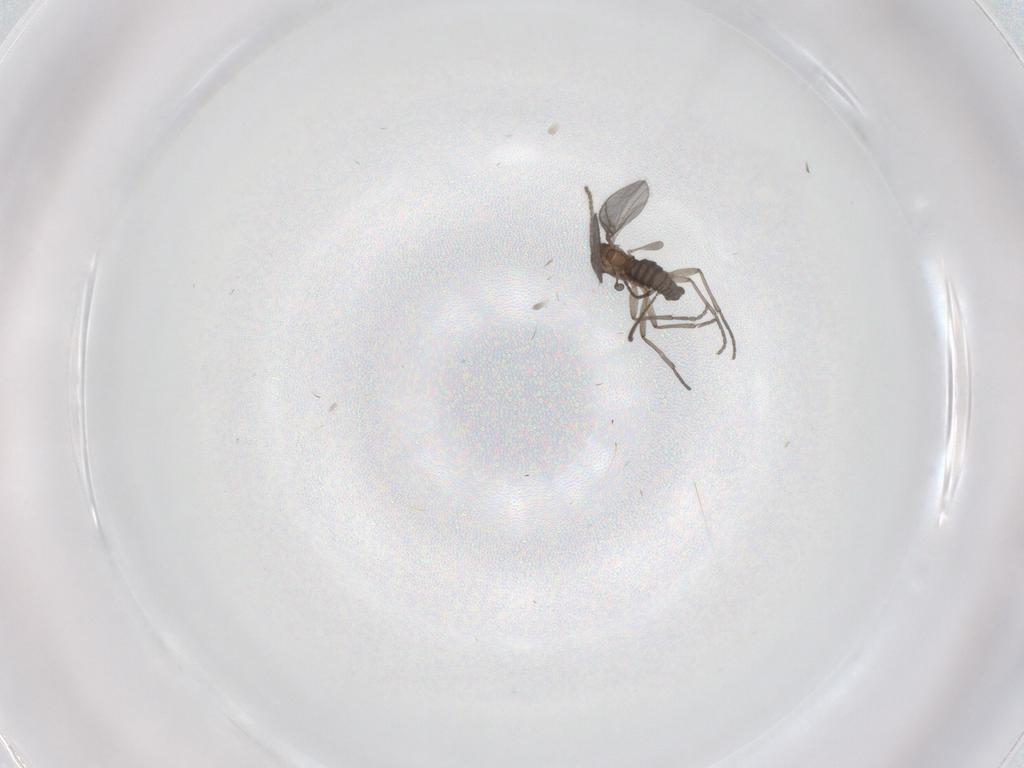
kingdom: Animalia
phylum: Arthropoda
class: Insecta
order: Diptera
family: Sciaridae
